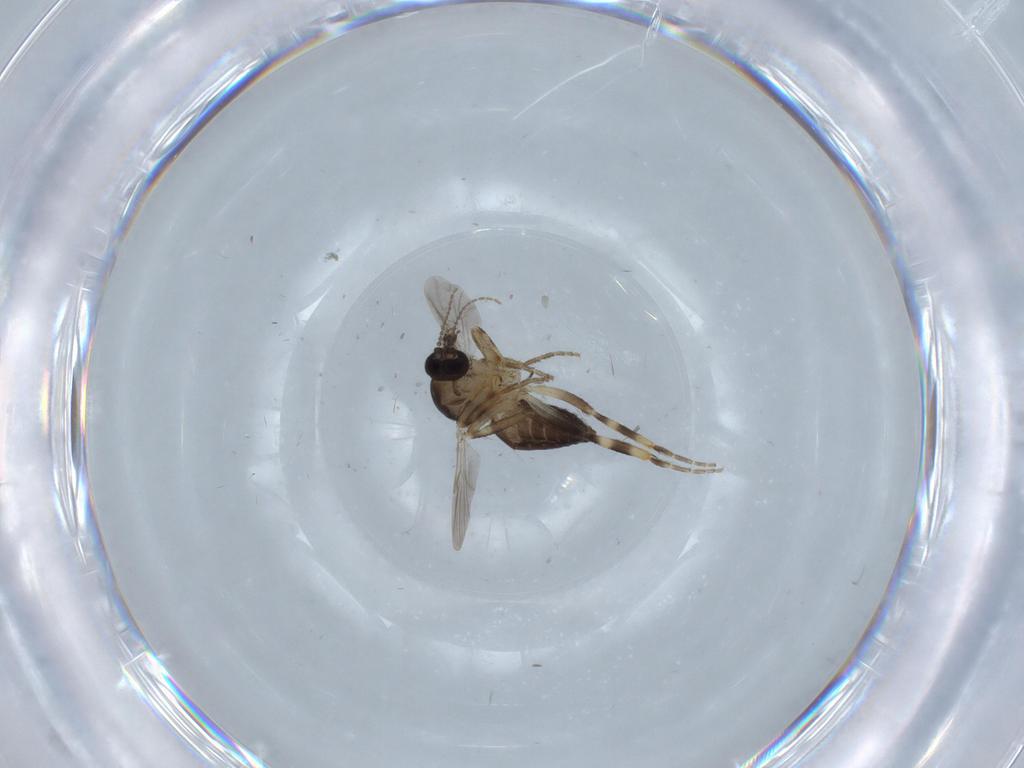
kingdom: Animalia
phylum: Arthropoda
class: Insecta
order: Diptera
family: Ceratopogonidae
